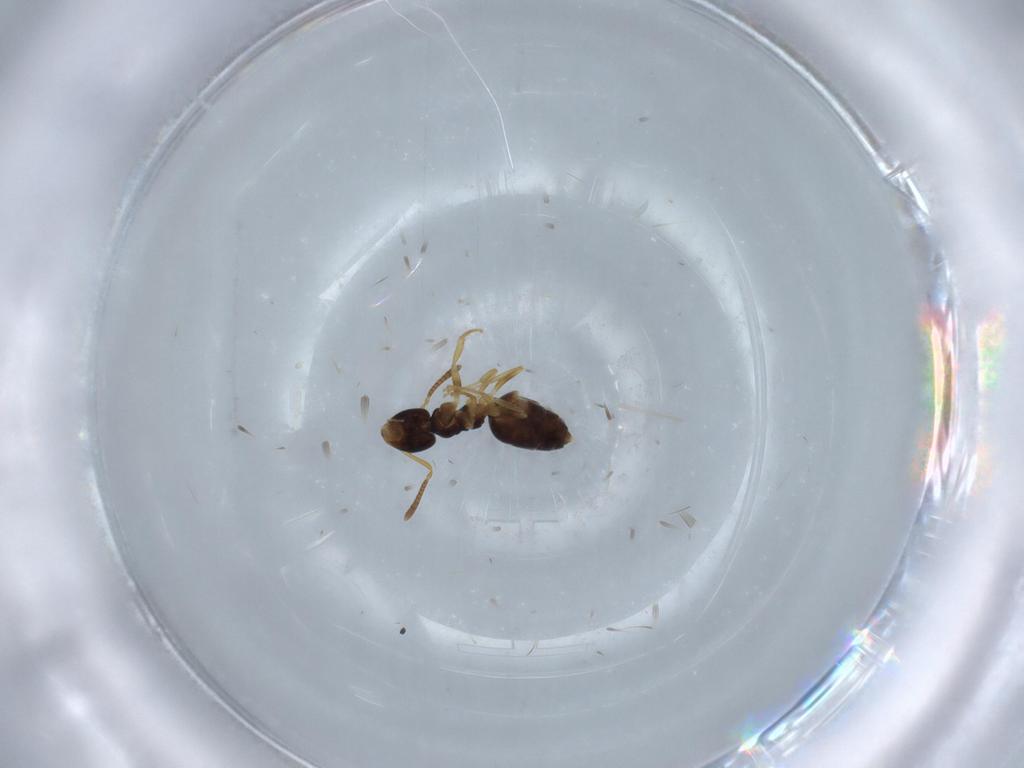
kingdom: Animalia
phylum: Arthropoda
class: Insecta
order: Hymenoptera
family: Formicidae
